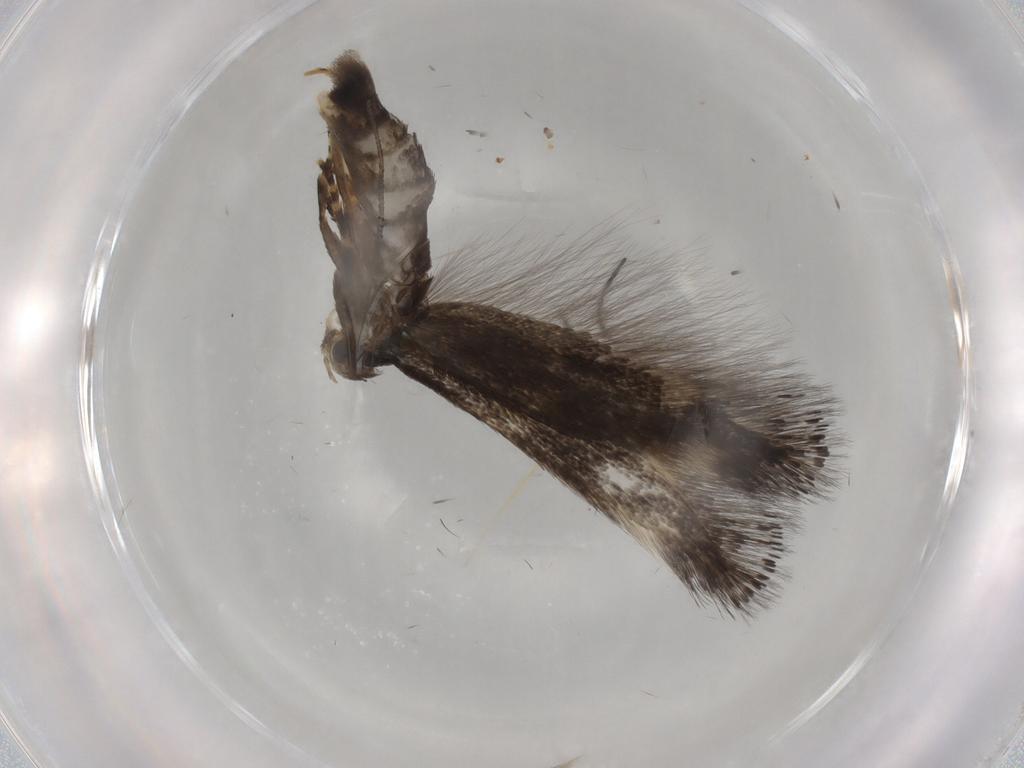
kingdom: Animalia
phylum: Arthropoda
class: Insecta
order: Lepidoptera
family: Elachistidae
